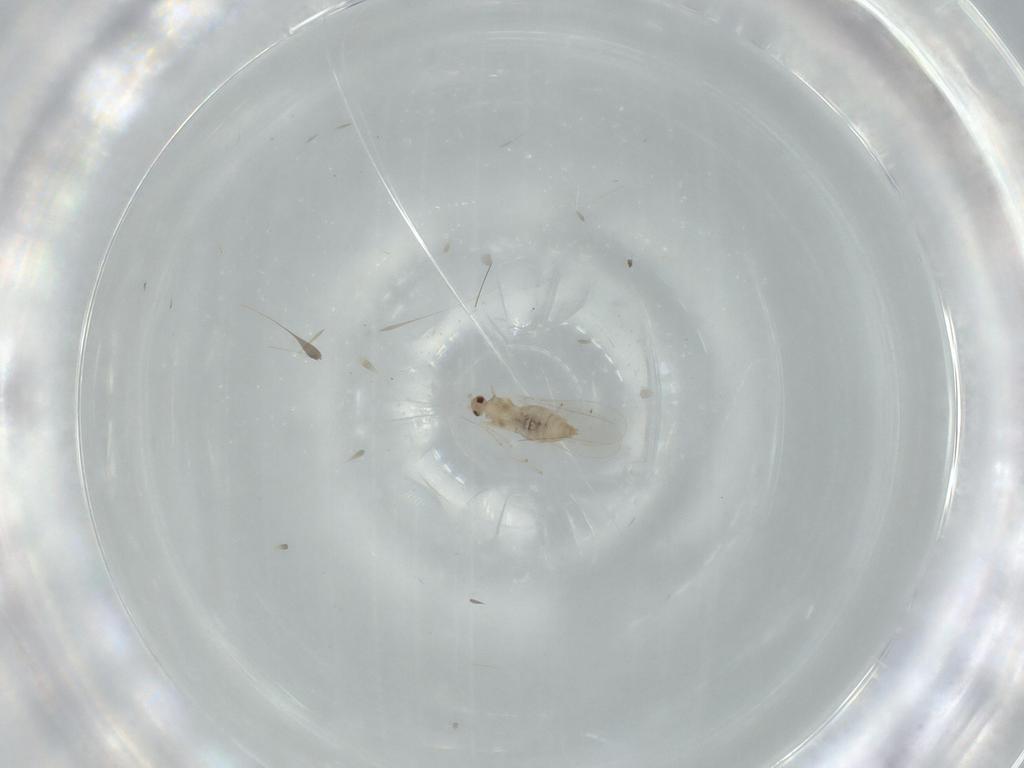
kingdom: Animalia
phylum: Arthropoda
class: Insecta
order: Diptera
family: Cecidomyiidae
